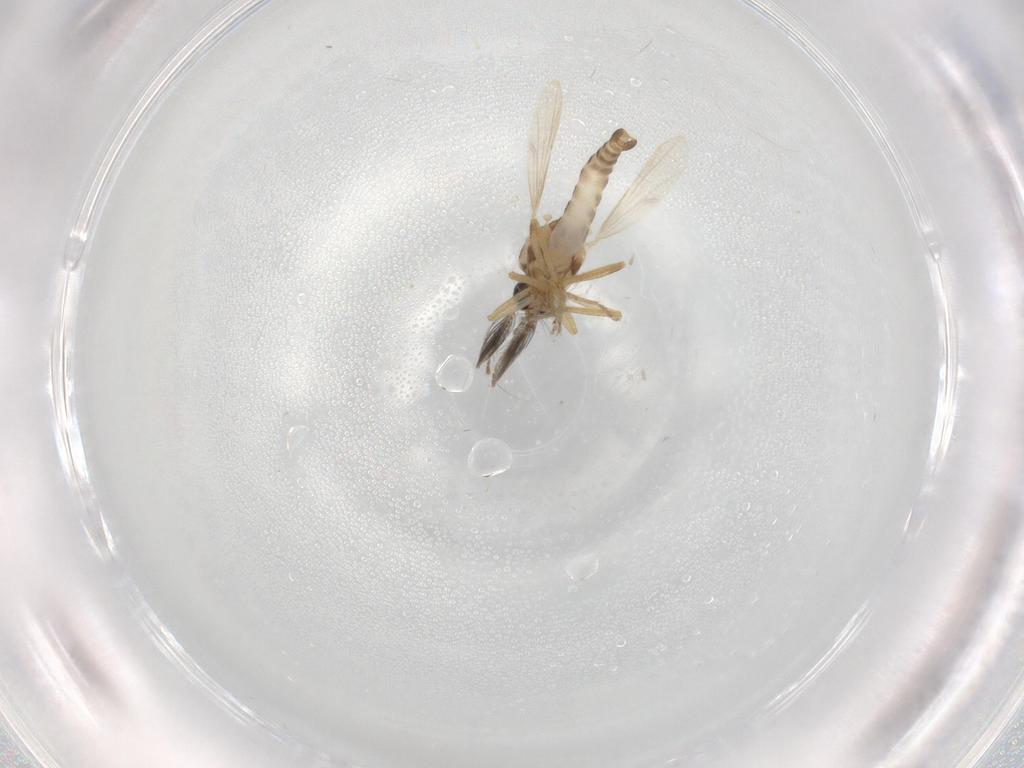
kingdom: Animalia
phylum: Arthropoda
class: Insecta
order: Diptera
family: Ceratopogonidae
